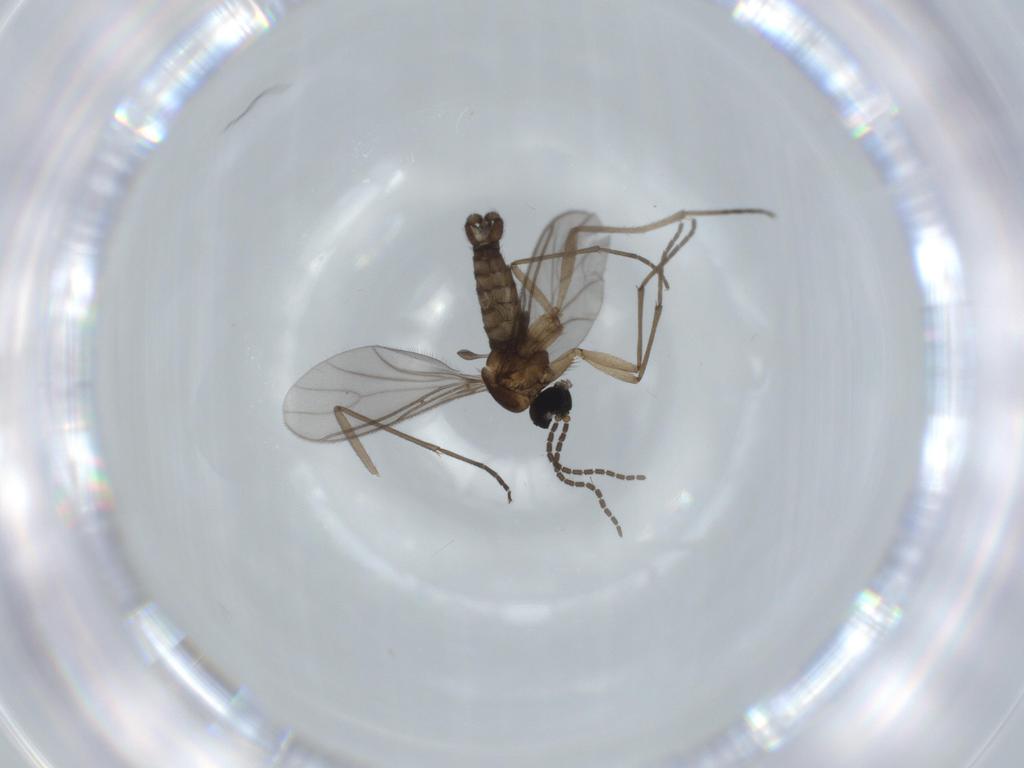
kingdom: Animalia
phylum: Arthropoda
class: Insecta
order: Diptera
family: Sciaridae
